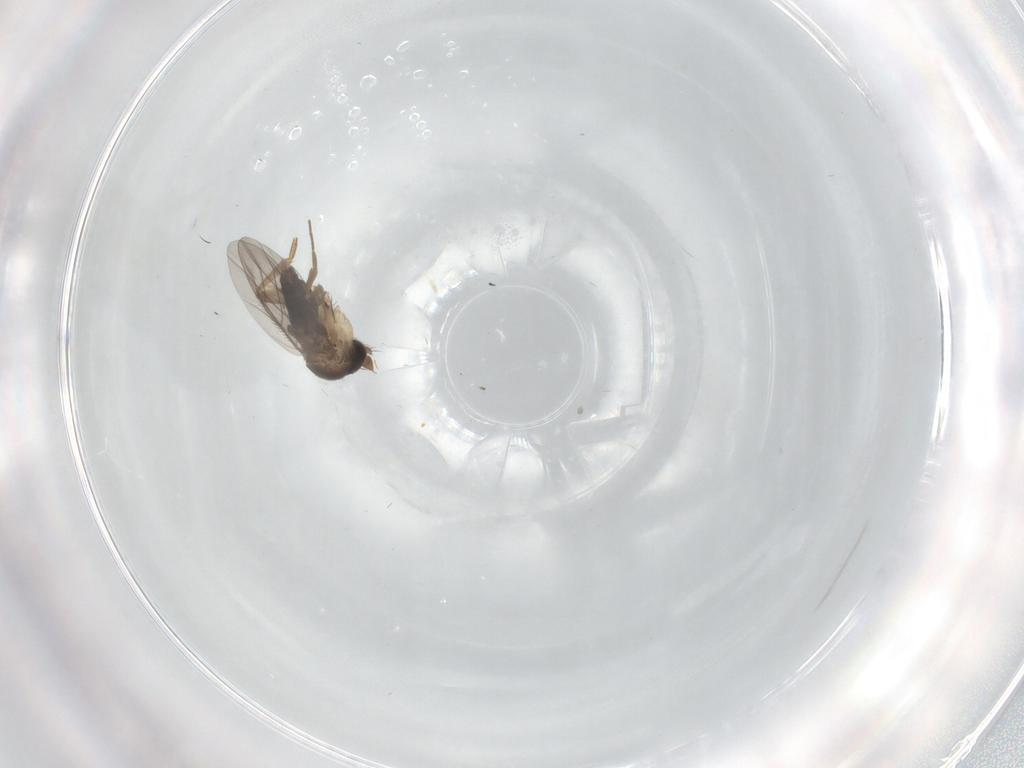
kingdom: Animalia
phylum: Arthropoda
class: Insecta
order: Diptera
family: Phoridae
